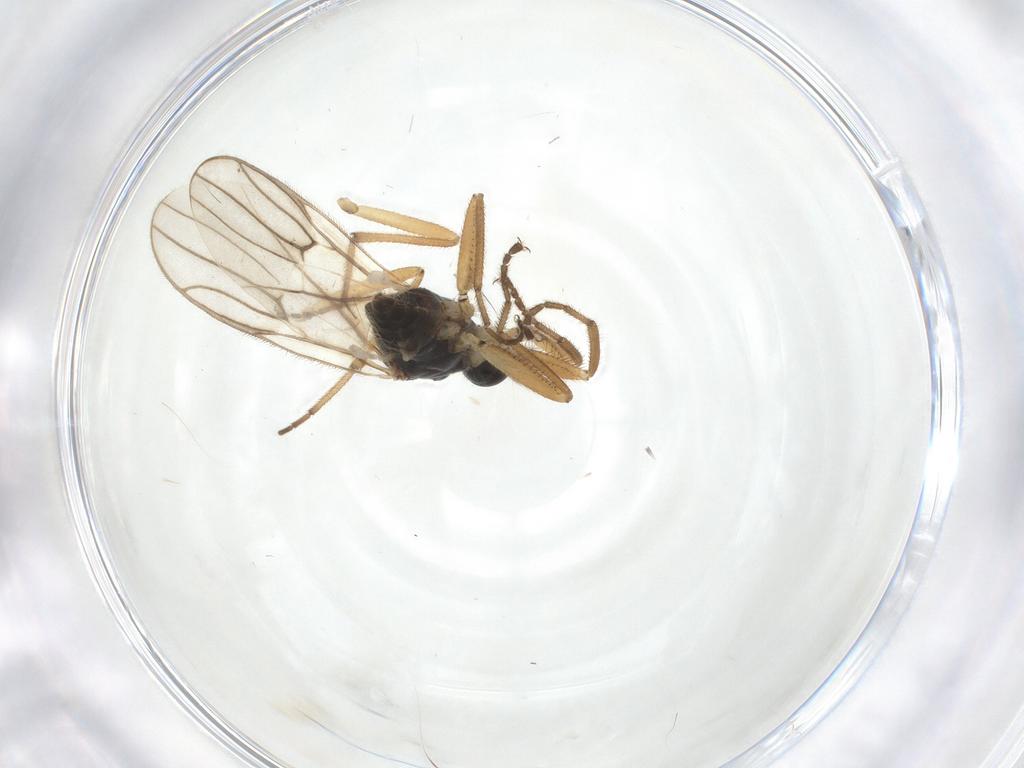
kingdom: Animalia
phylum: Arthropoda
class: Insecta
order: Diptera
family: Hybotidae
